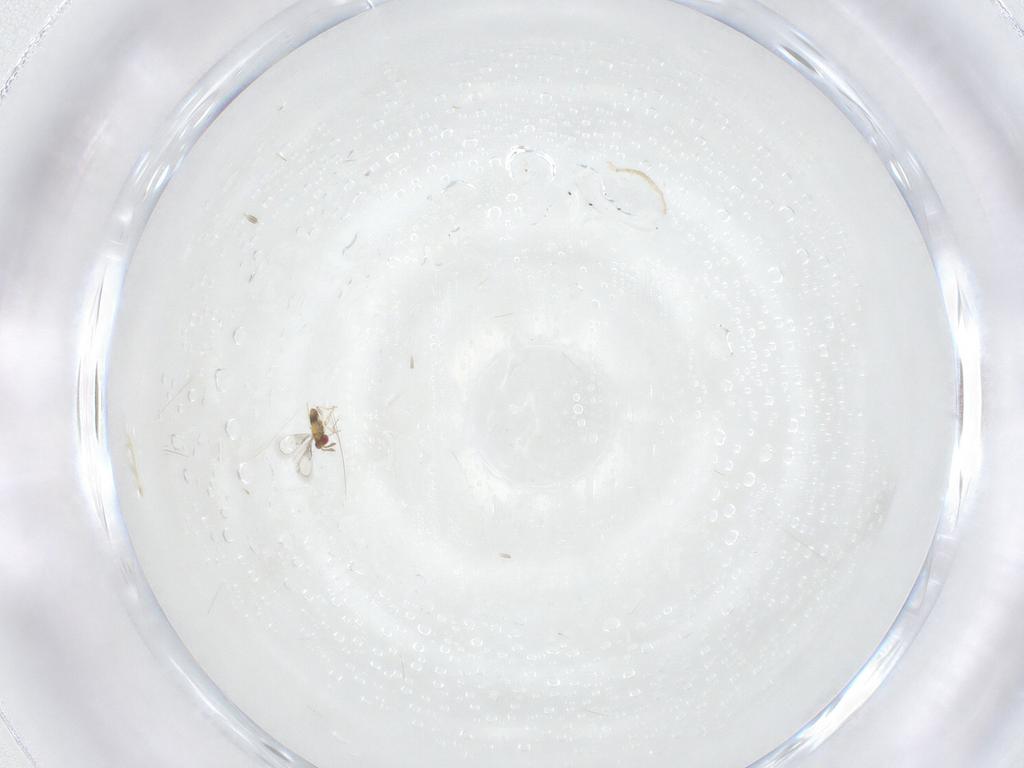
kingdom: Animalia
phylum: Arthropoda
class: Insecta
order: Hymenoptera
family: Trichogrammatidae
